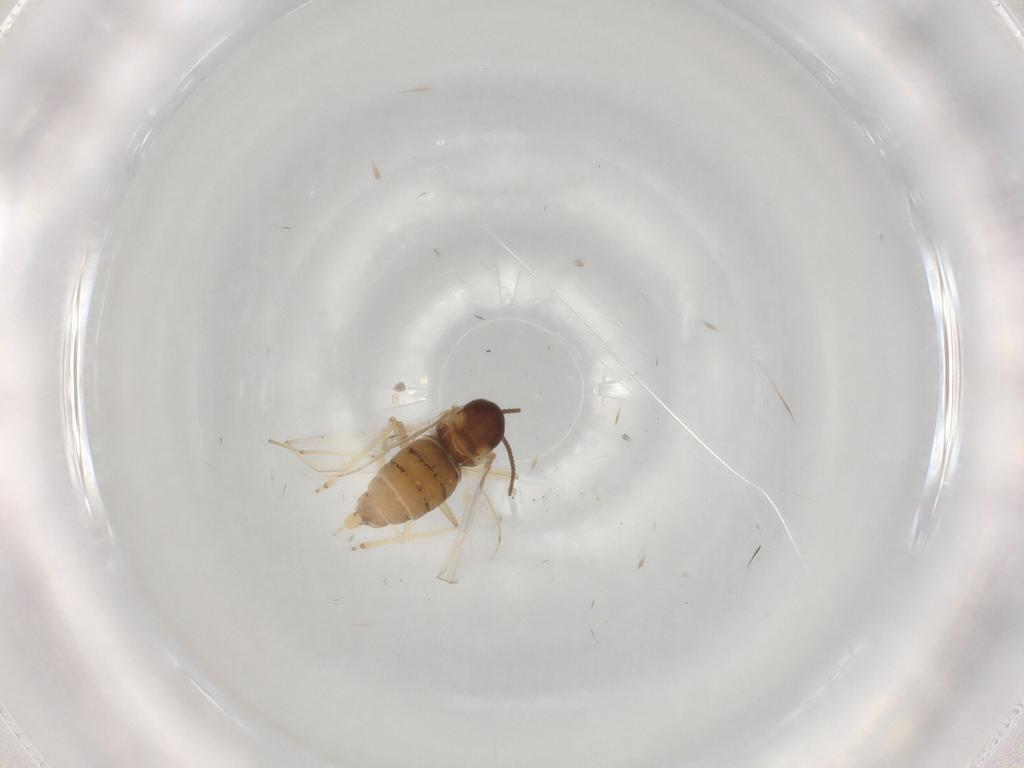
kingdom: Animalia
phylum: Arthropoda
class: Insecta
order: Diptera
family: Cecidomyiidae
